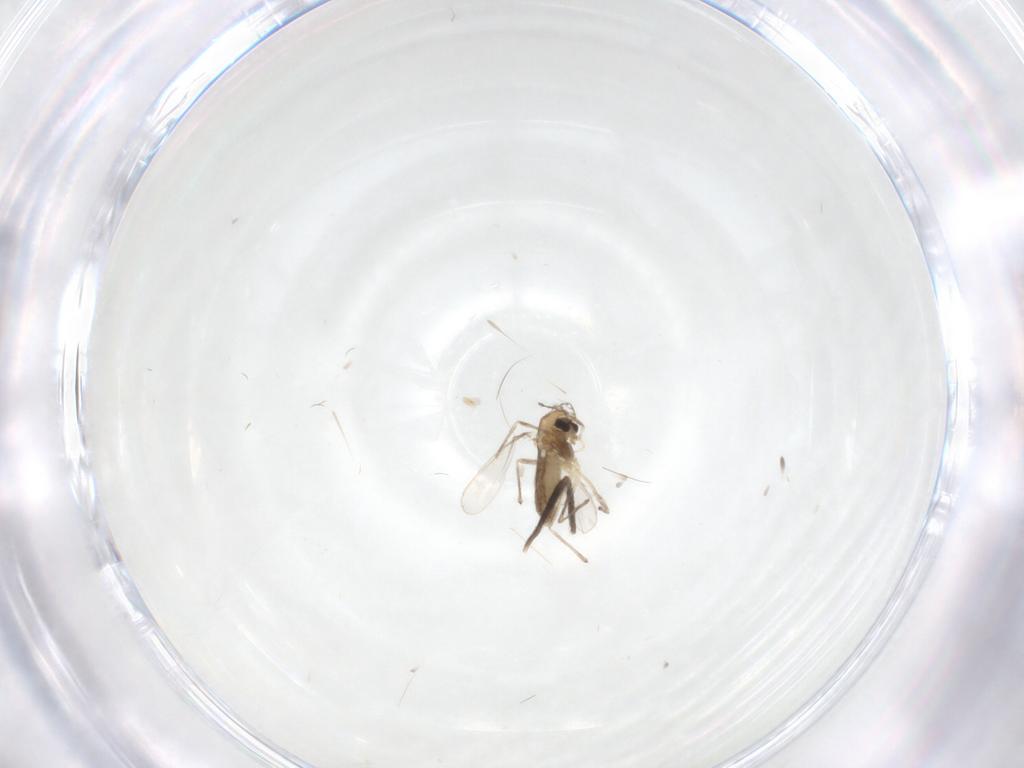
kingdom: Animalia
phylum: Arthropoda
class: Insecta
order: Diptera
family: Chironomidae
